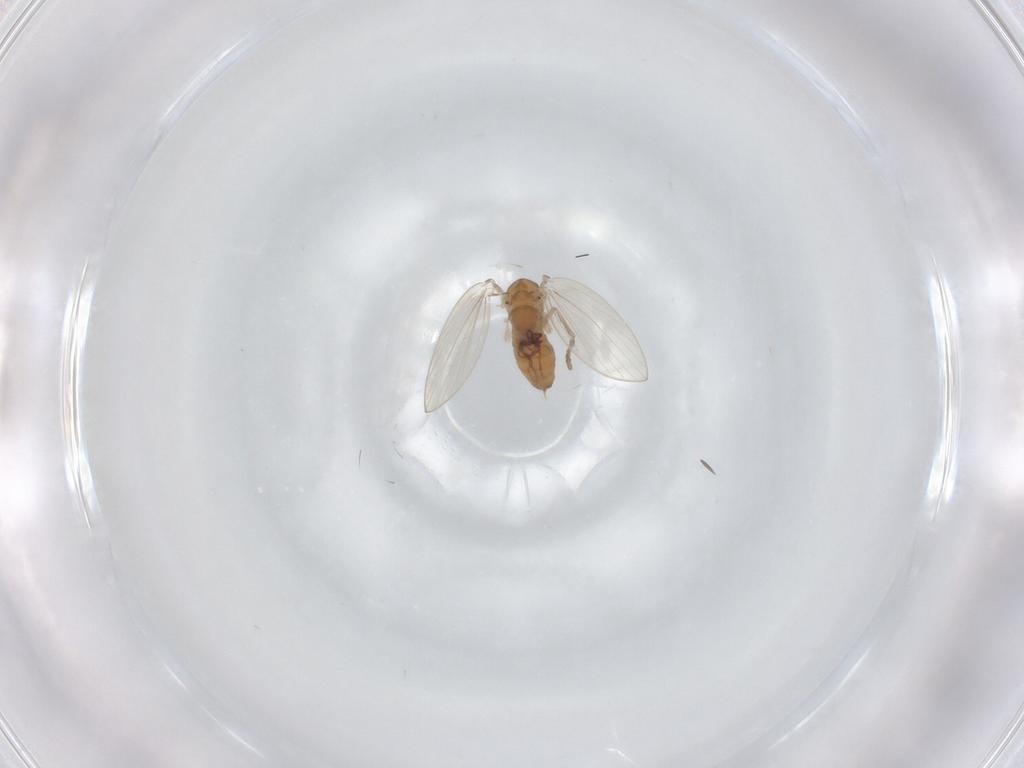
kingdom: Animalia
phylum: Arthropoda
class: Insecta
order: Diptera
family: Psychodidae
